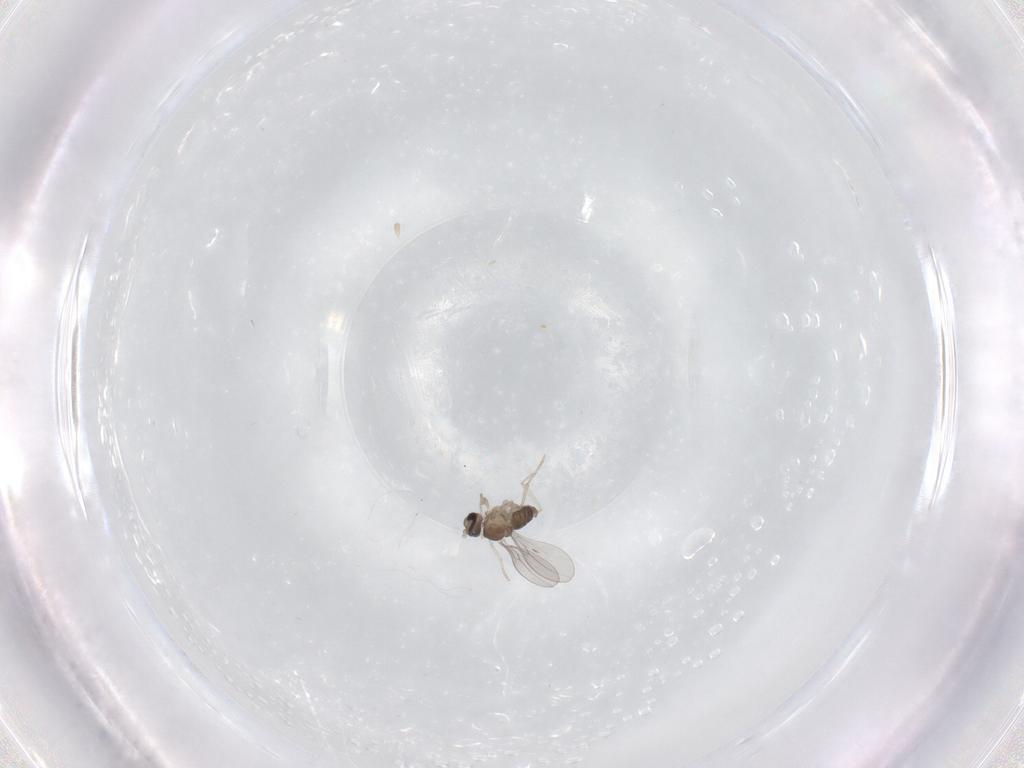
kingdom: Animalia
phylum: Arthropoda
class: Insecta
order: Diptera
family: Cecidomyiidae
